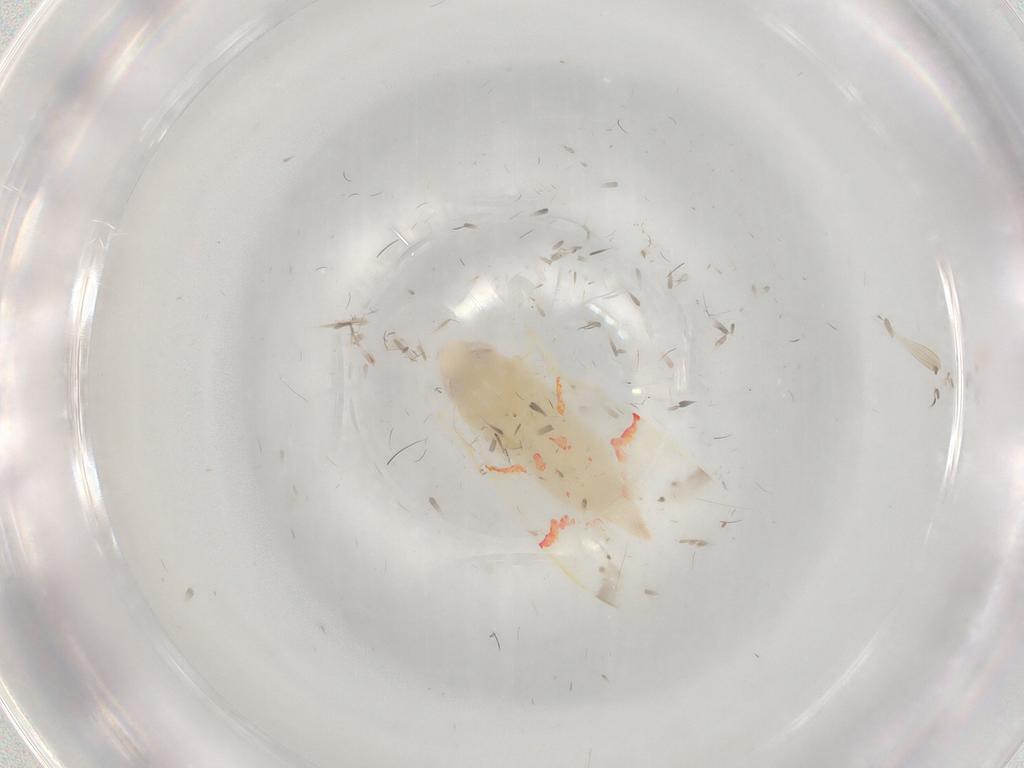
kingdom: Animalia
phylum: Arthropoda
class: Insecta
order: Hemiptera
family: Cicadellidae
